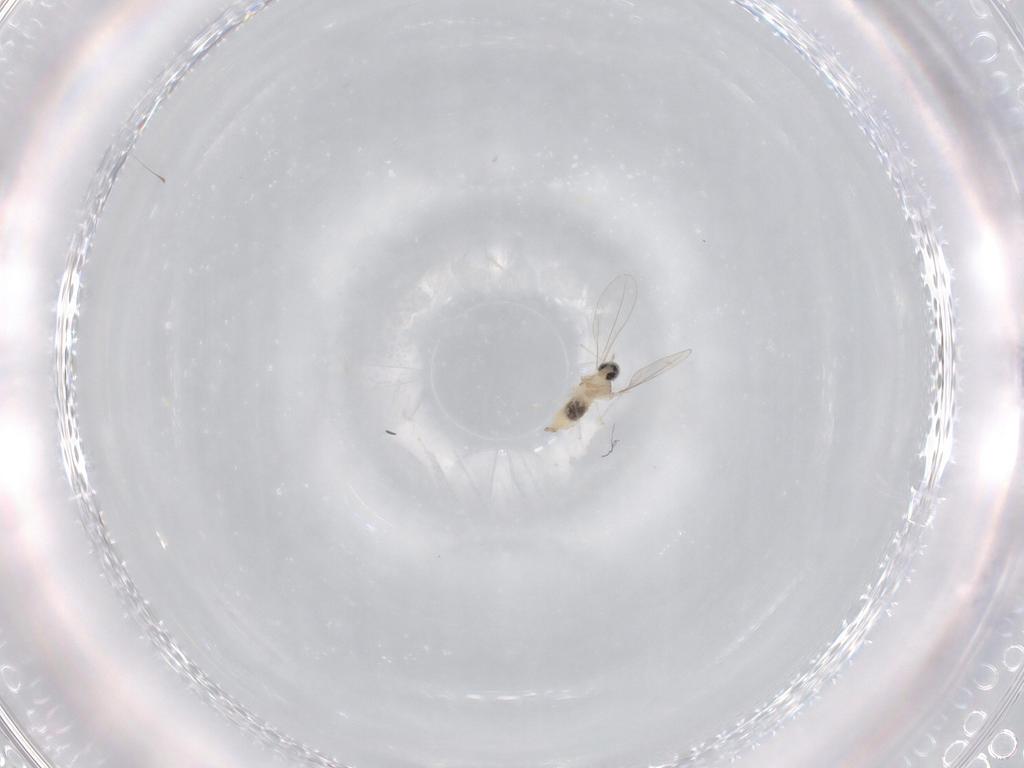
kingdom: Animalia
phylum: Arthropoda
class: Insecta
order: Diptera
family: Cecidomyiidae
